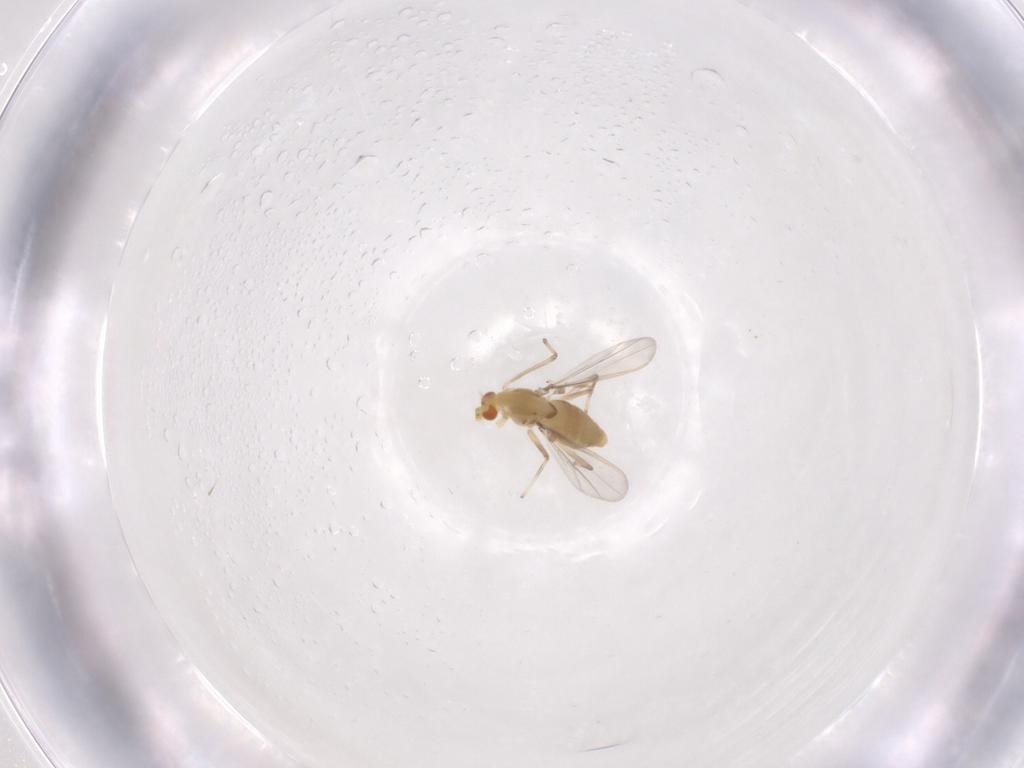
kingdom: Animalia
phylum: Arthropoda
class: Insecta
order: Diptera
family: Chironomidae
